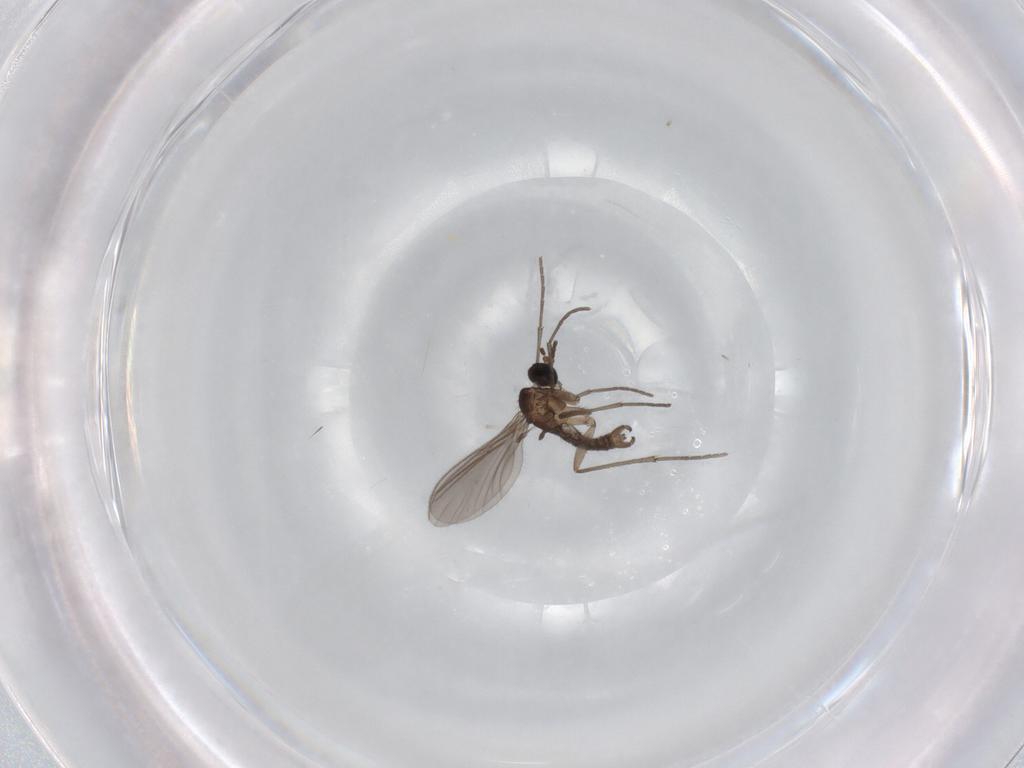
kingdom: Animalia
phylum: Arthropoda
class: Insecta
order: Diptera
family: Sciaridae
